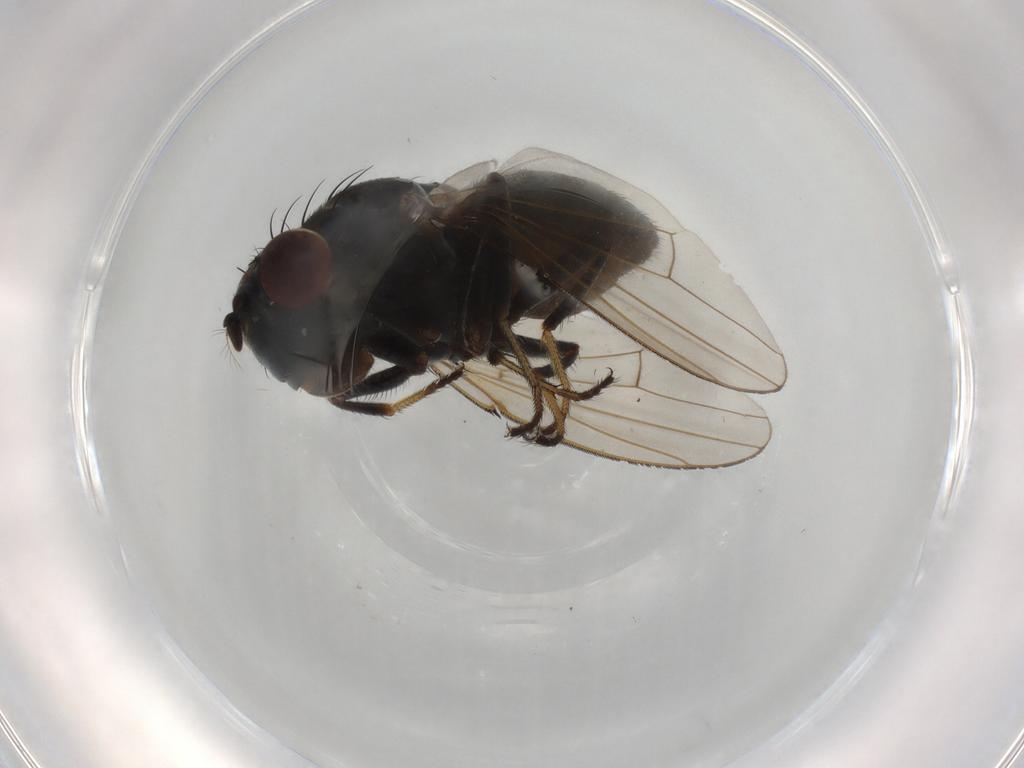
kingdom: Animalia
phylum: Arthropoda
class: Insecta
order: Diptera
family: Ephydridae
